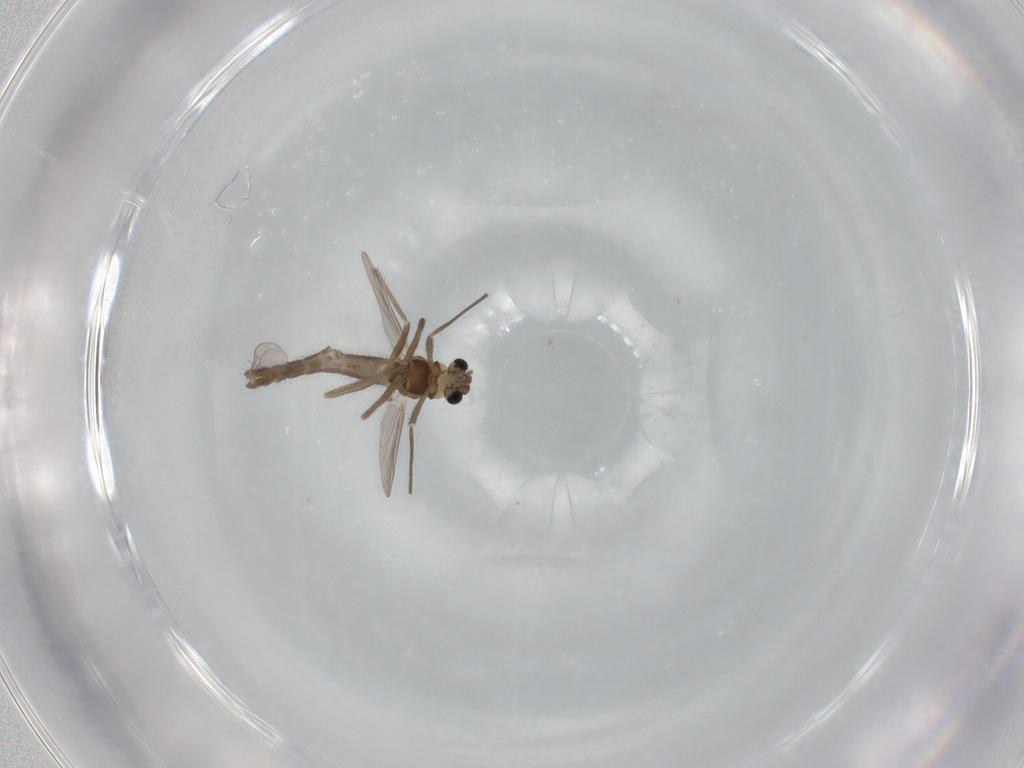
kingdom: Animalia
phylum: Arthropoda
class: Insecta
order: Diptera
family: Chironomidae
